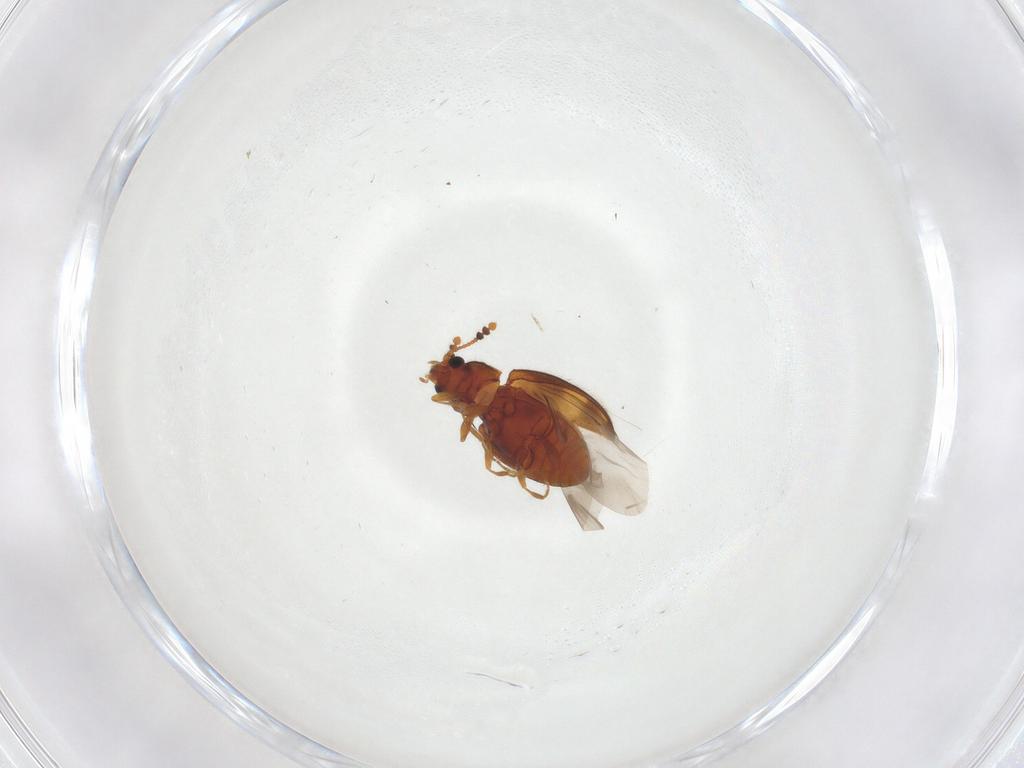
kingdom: Animalia
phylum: Arthropoda
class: Insecta
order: Coleoptera
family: Erotylidae
